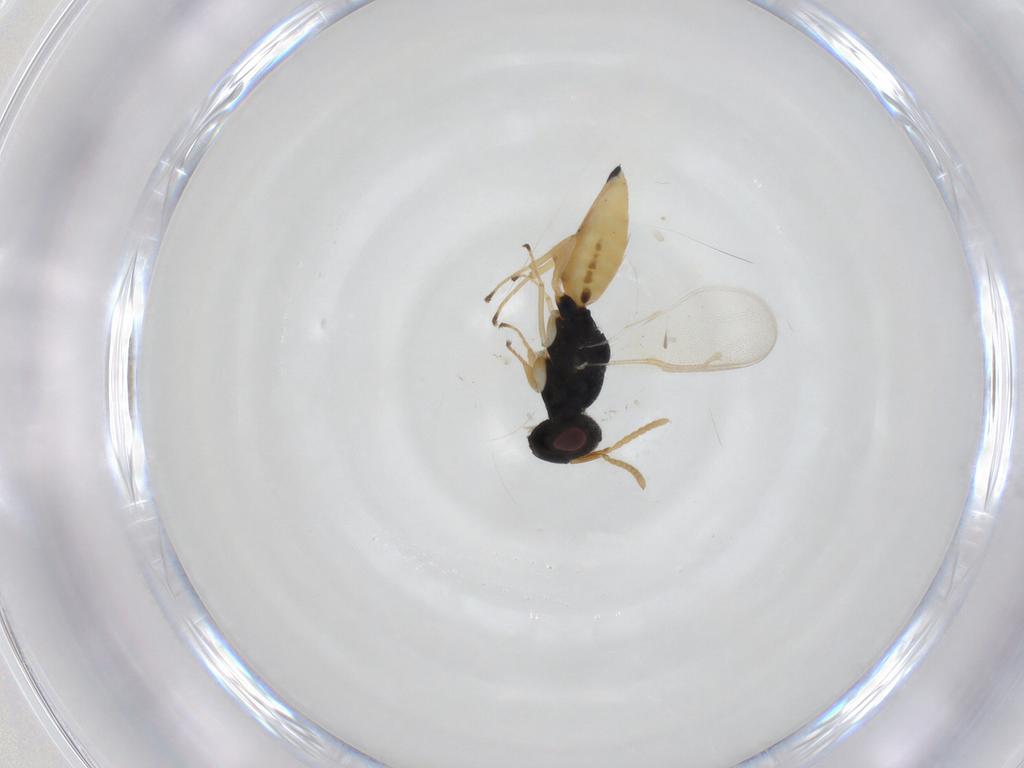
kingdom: Animalia
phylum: Arthropoda
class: Insecta
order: Hymenoptera
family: Pteromalidae
